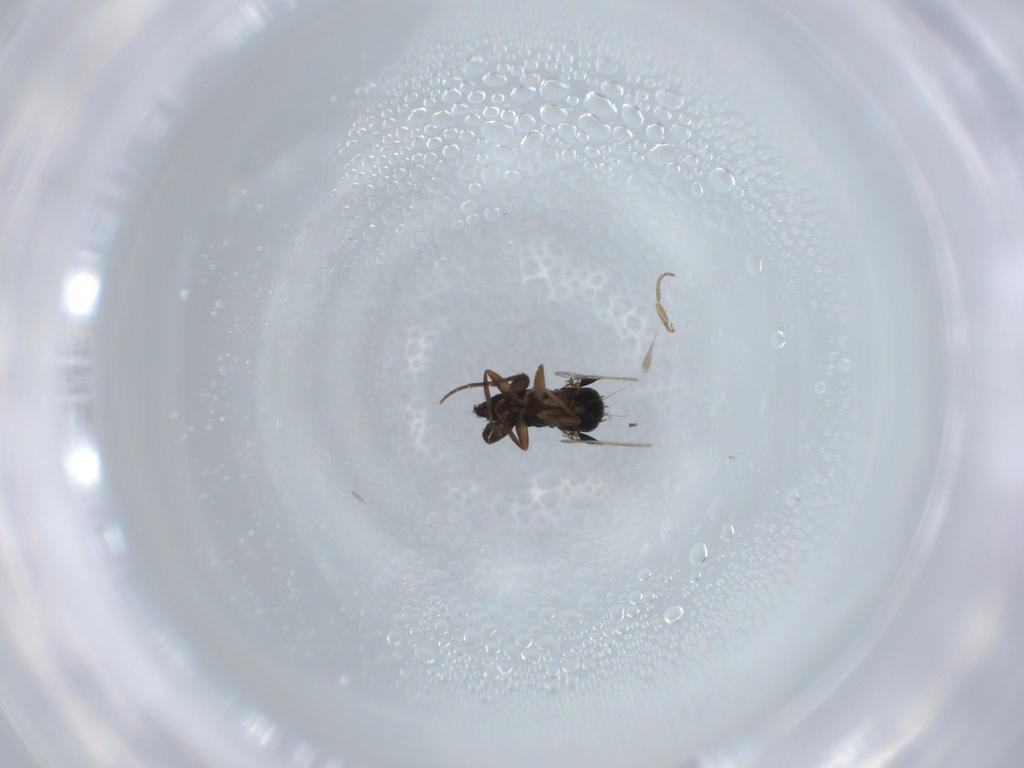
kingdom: Animalia
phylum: Arthropoda
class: Insecta
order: Diptera
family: Phoridae
